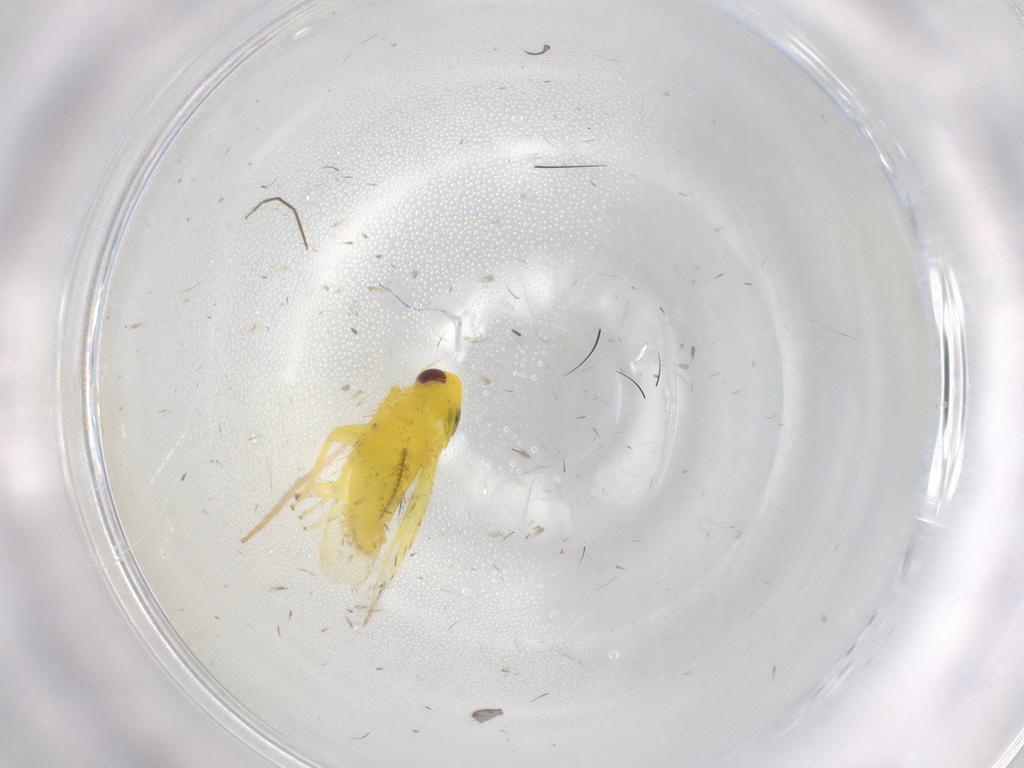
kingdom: Animalia
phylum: Arthropoda
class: Insecta
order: Hemiptera
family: Cicadellidae
